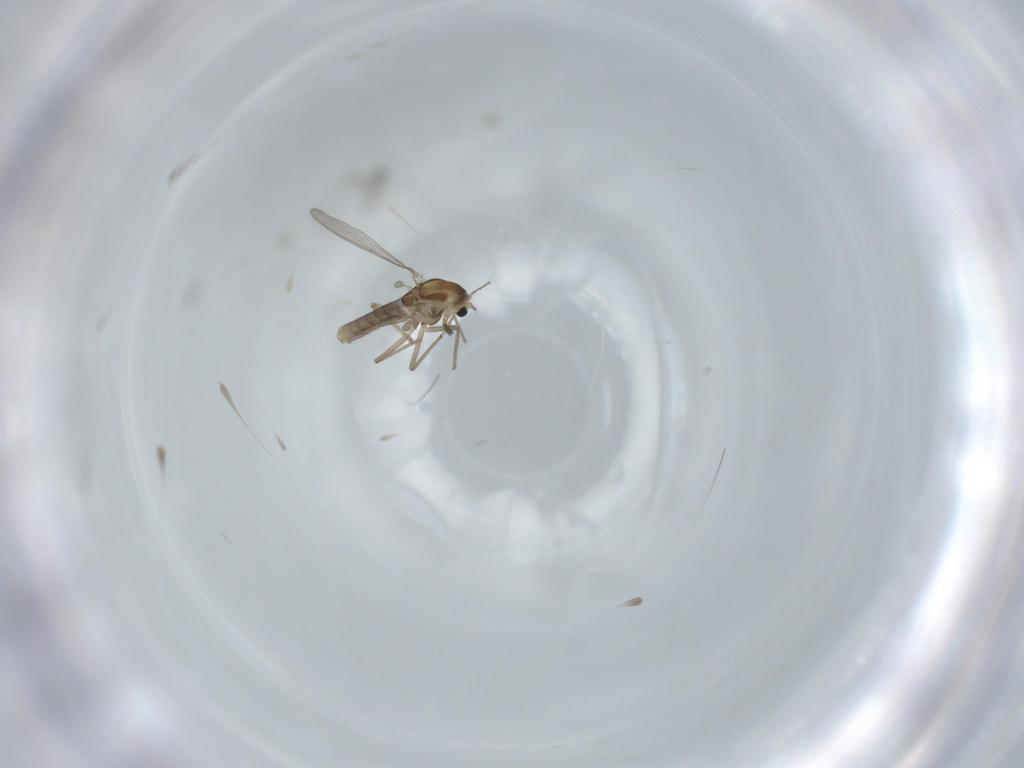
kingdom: Animalia
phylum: Arthropoda
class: Insecta
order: Diptera
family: Chironomidae
